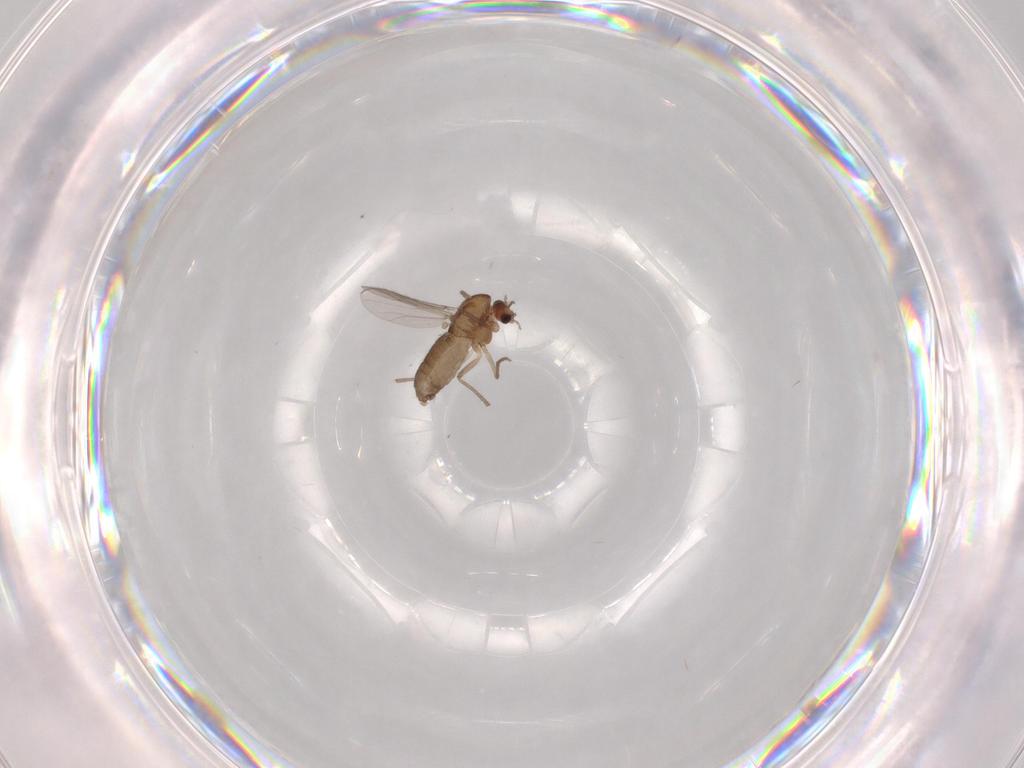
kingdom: Animalia
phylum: Arthropoda
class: Insecta
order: Diptera
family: Chironomidae
